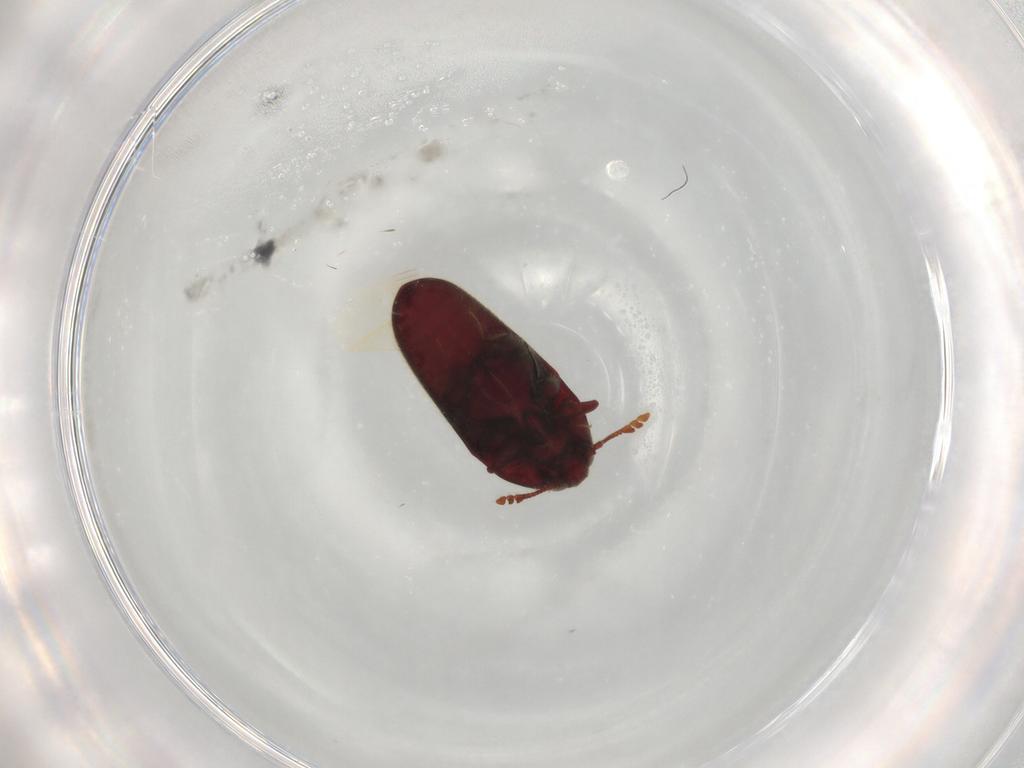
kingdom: Animalia
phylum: Arthropoda
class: Insecta
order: Coleoptera
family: Throscidae
